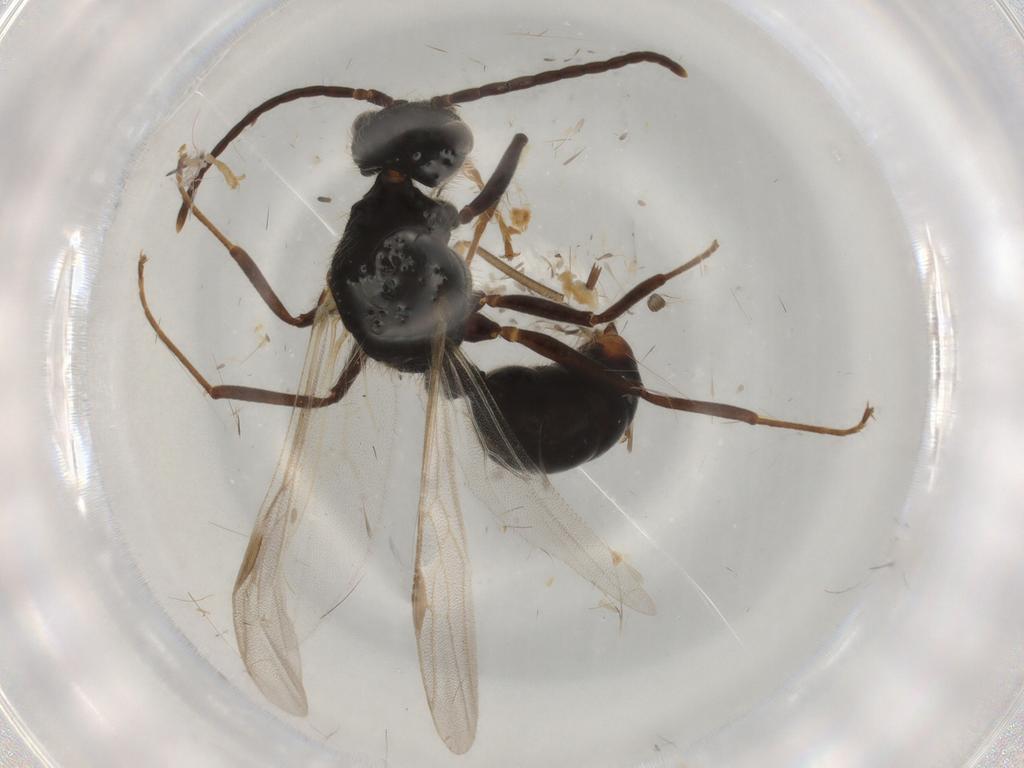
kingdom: Animalia
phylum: Arthropoda
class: Insecta
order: Hymenoptera
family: Formicidae
